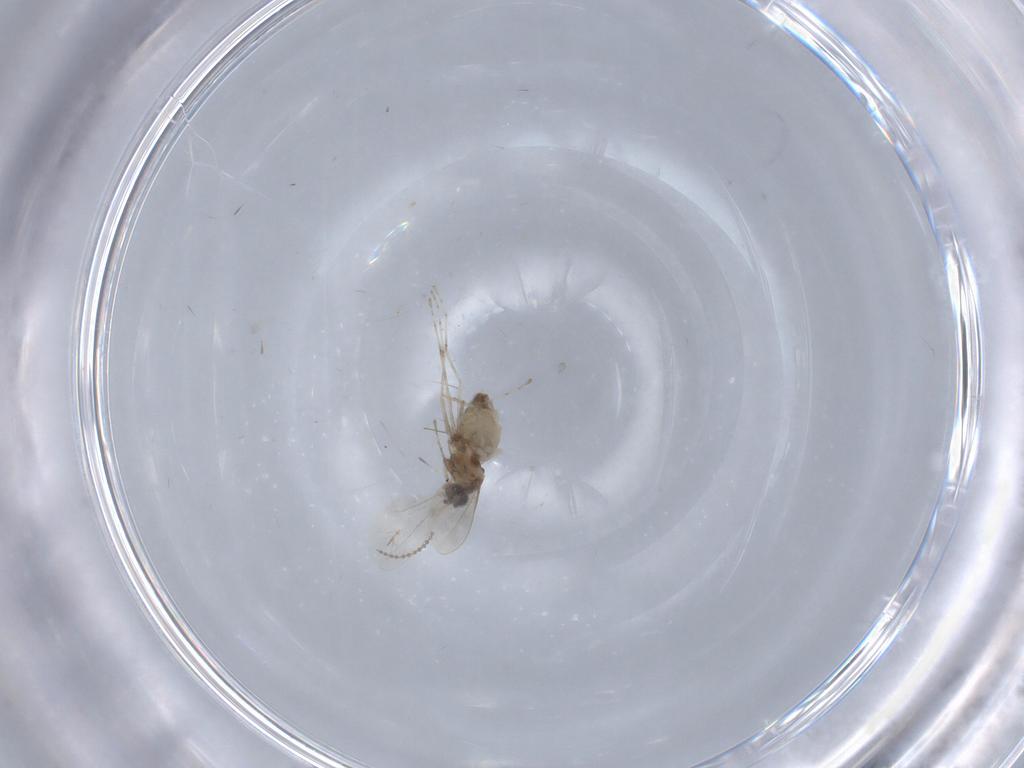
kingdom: Animalia
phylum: Arthropoda
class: Insecta
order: Diptera
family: Cecidomyiidae
